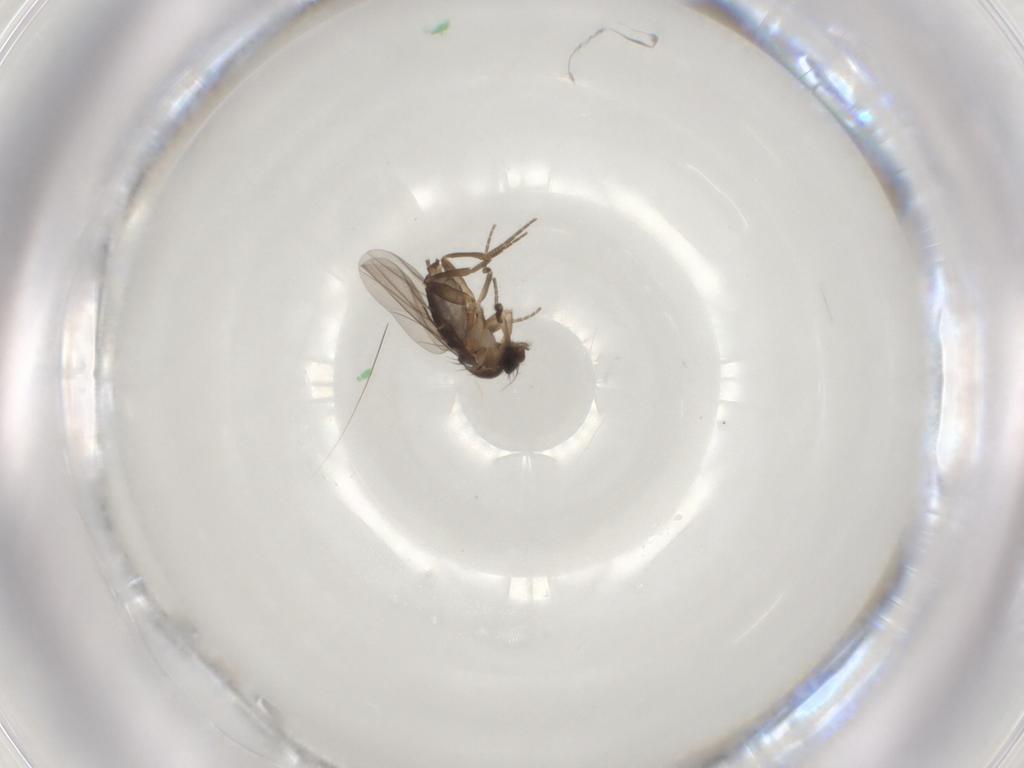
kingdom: Animalia
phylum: Arthropoda
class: Insecta
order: Diptera
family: Phoridae
